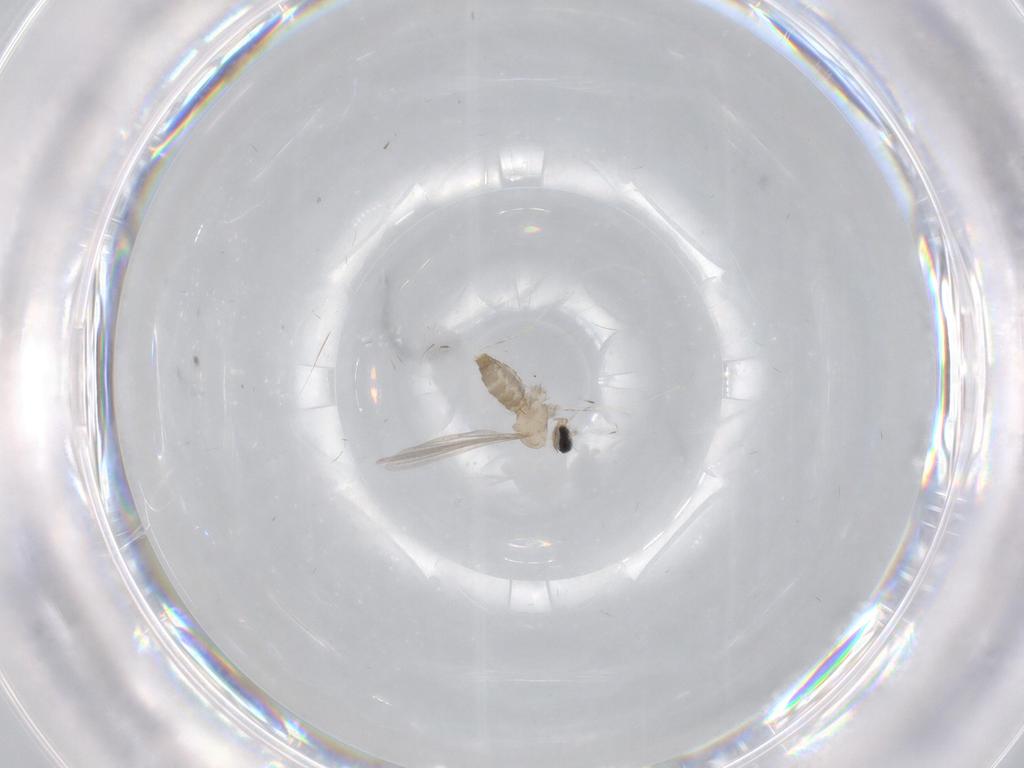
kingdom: Animalia
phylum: Arthropoda
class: Insecta
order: Diptera
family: Cecidomyiidae
